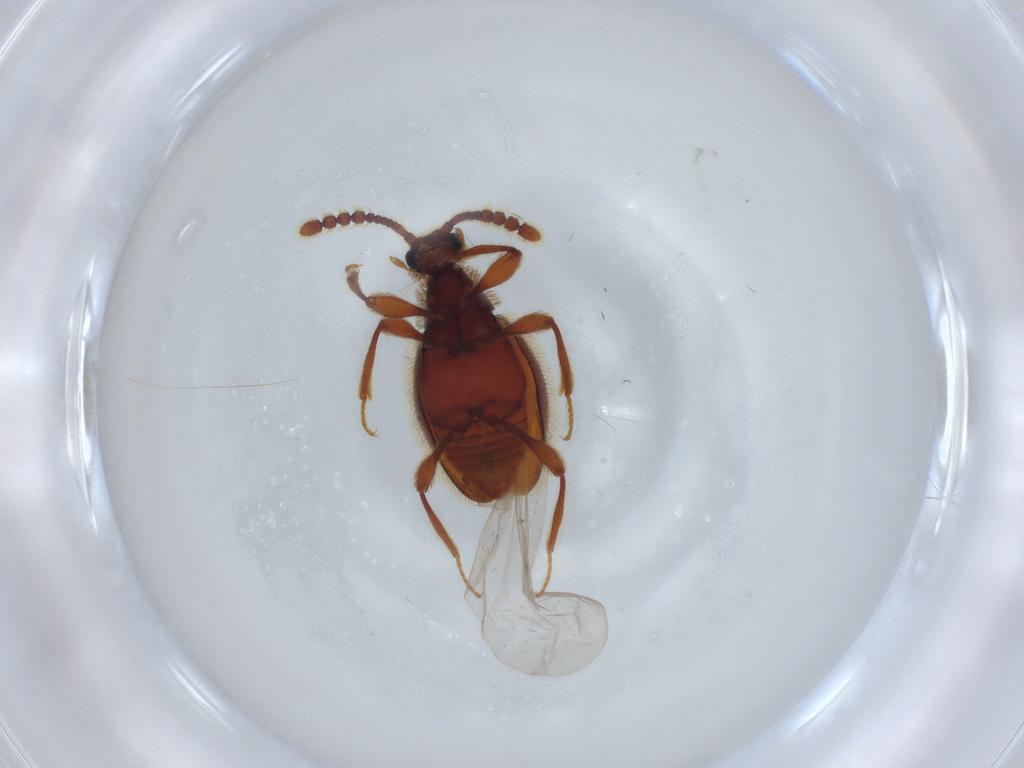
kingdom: Animalia
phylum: Arthropoda
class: Insecta
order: Coleoptera
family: Staphylinidae
